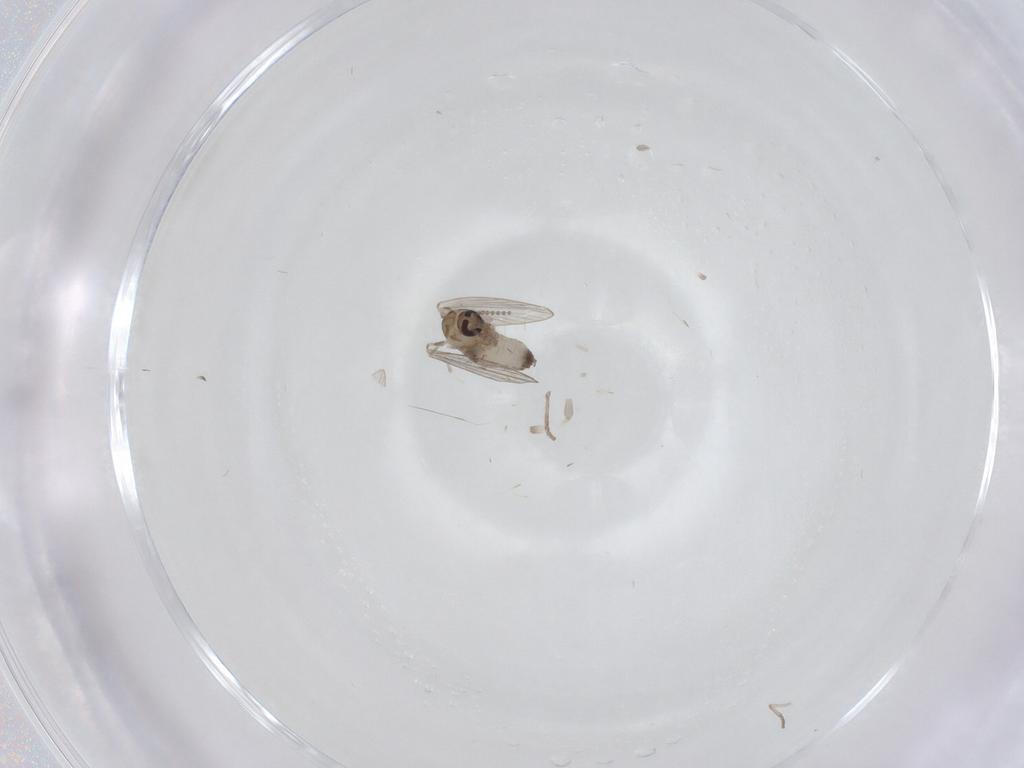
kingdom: Animalia
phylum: Arthropoda
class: Insecta
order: Diptera
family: Psychodidae
